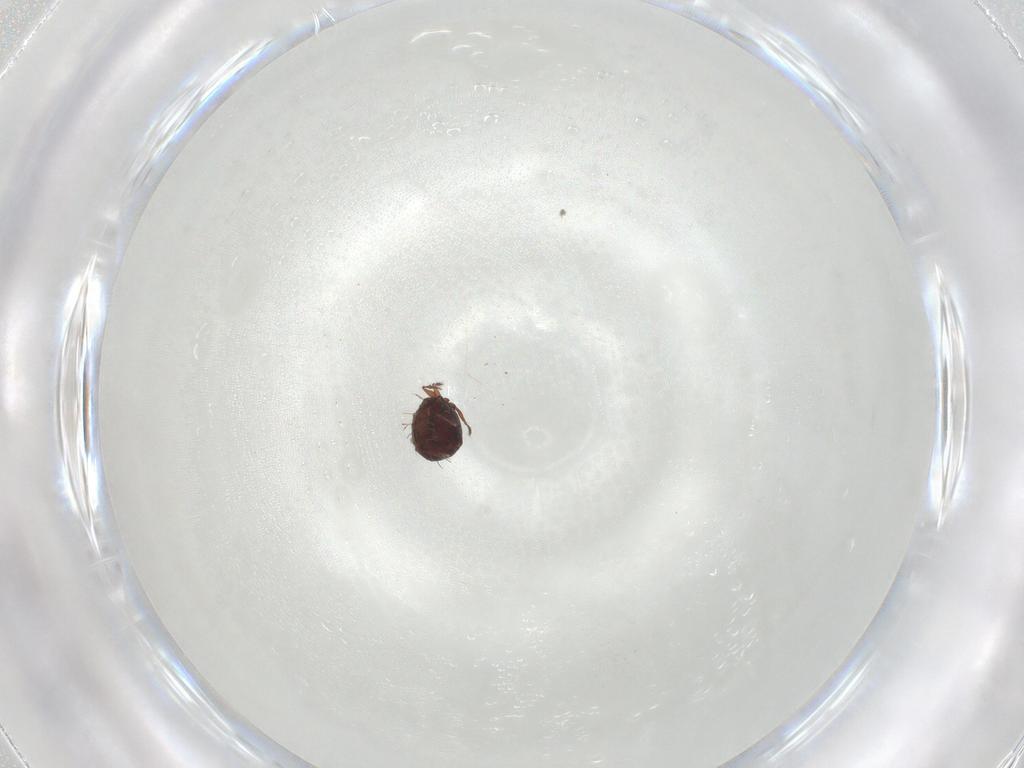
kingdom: Animalia
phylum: Arthropoda
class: Arachnida
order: Sarcoptiformes
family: Caloppiidae
